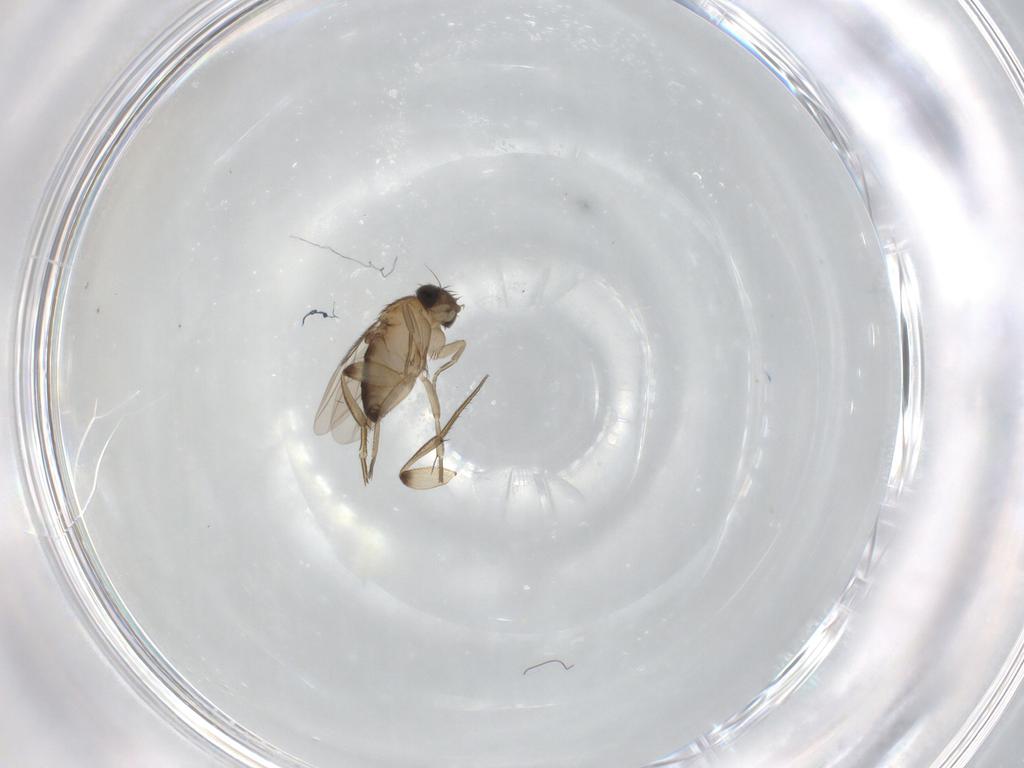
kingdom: Animalia
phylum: Arthropoda
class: Insecta
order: Diptera
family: Phoridae
